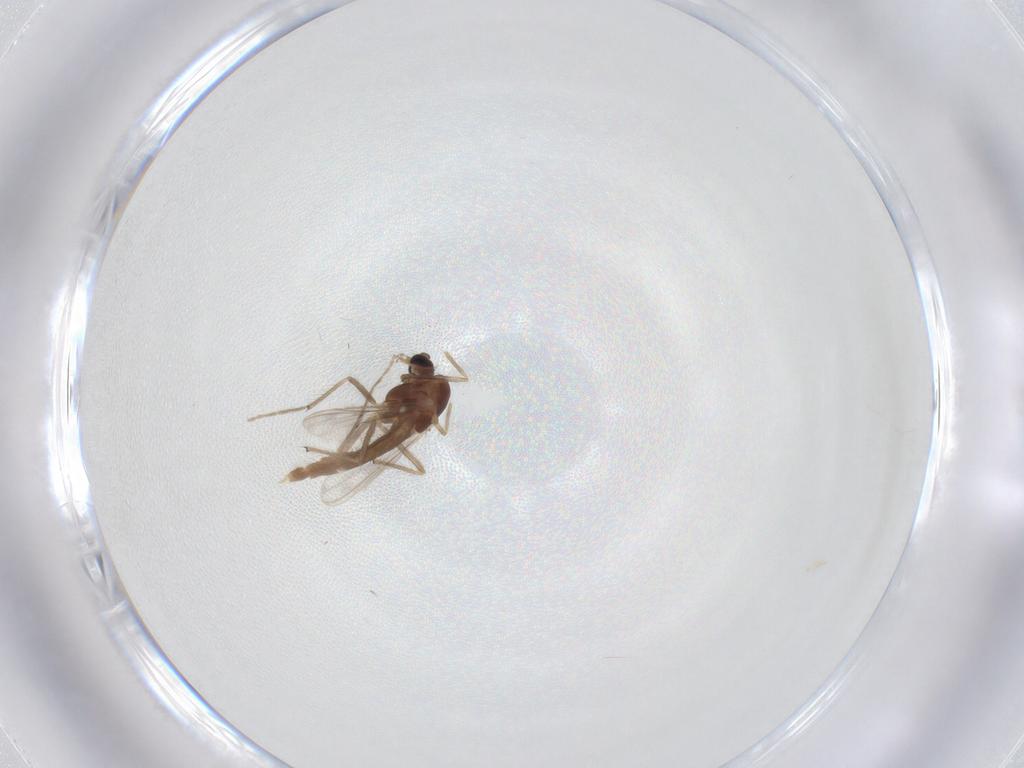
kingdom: Animalia
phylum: Arthropoda
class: Insecta
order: Diptera
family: Chironomidae
